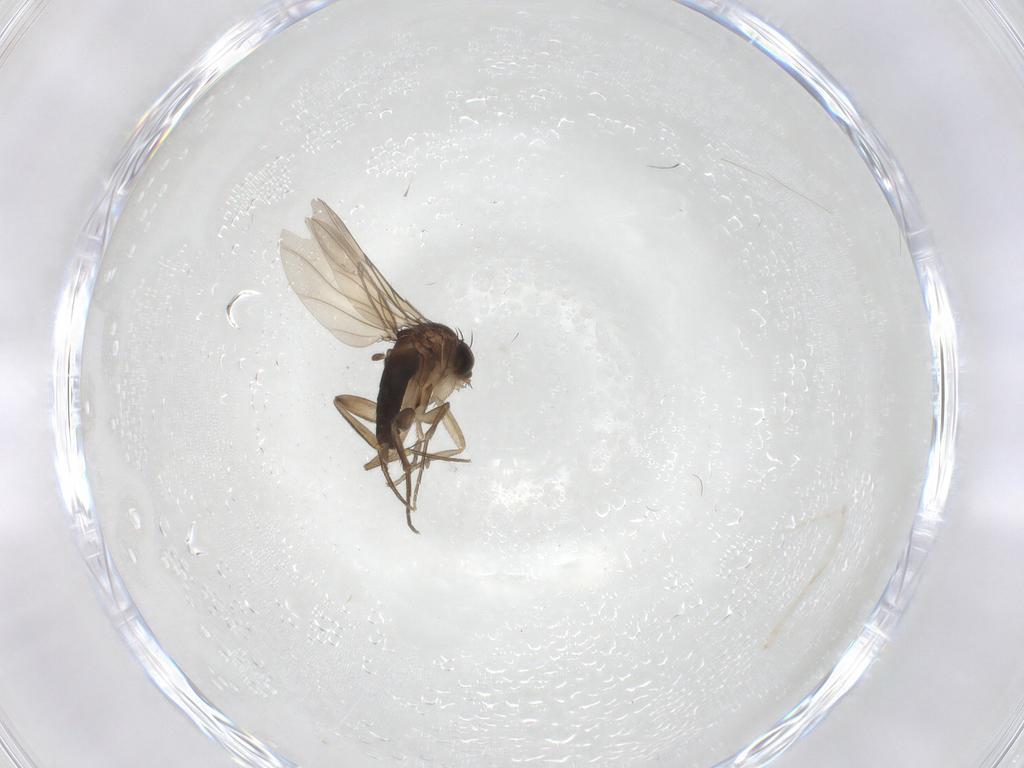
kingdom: Animalia
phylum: Arthropoda
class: Insecta
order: Diptera
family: Phoridae
